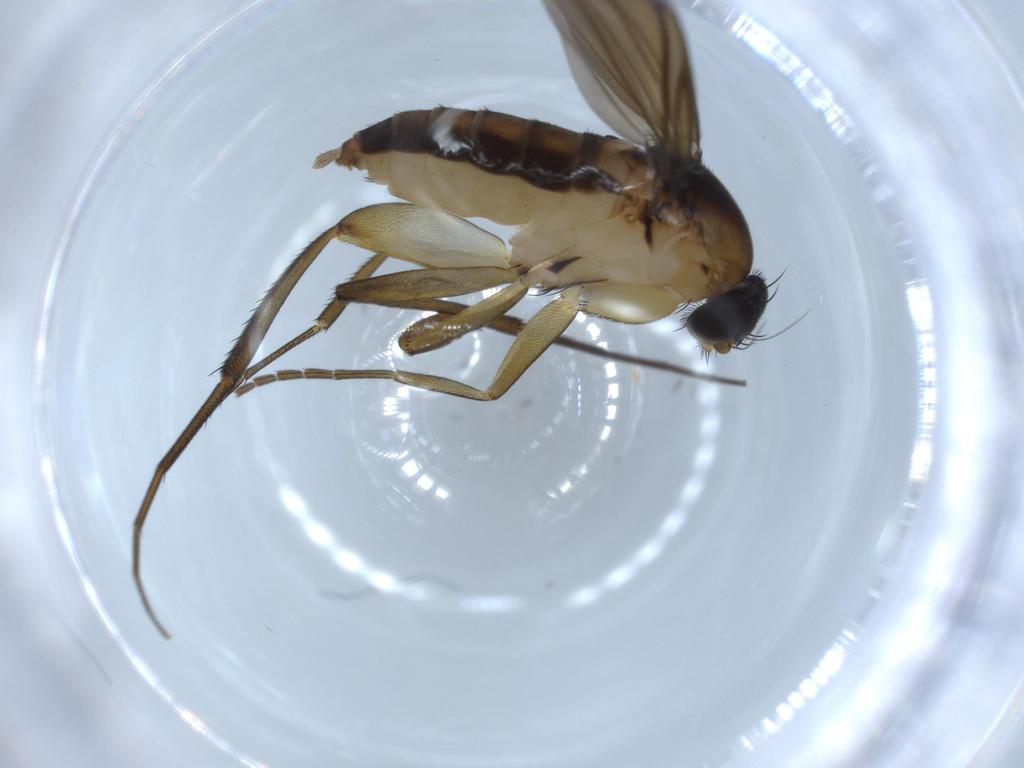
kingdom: Animalia
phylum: Arthropoda
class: Insecta
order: Diptera
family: Phoridae
